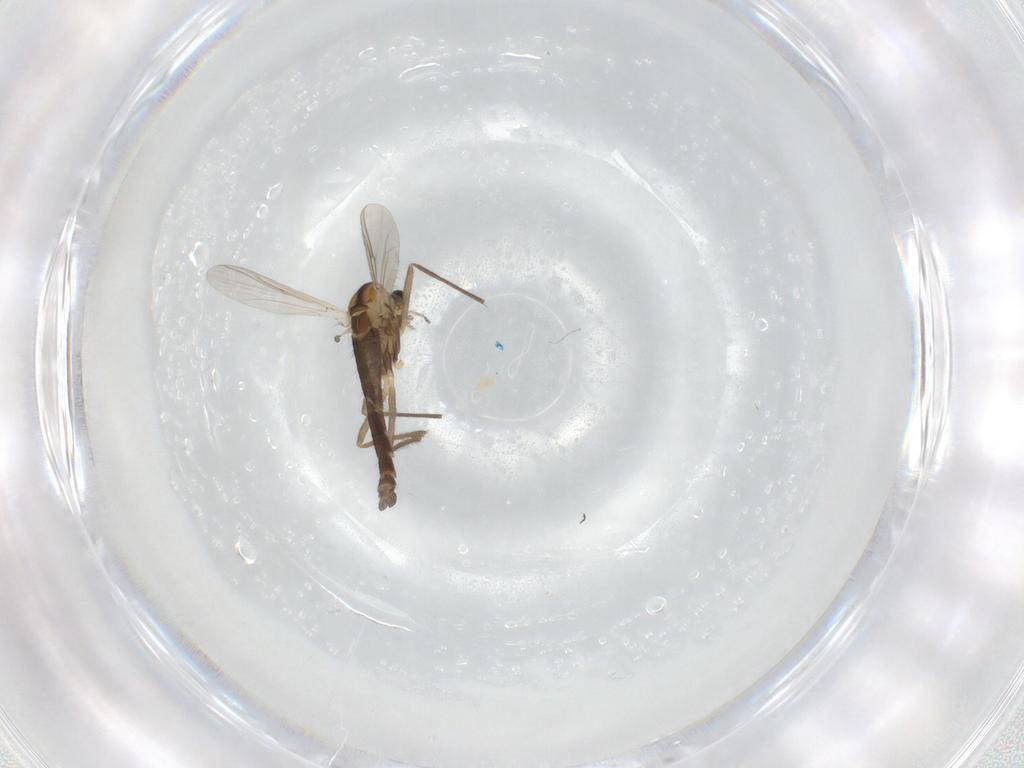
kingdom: Animalia
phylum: Arthropoda
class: Insecta
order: Diptera
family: Chironomidae
